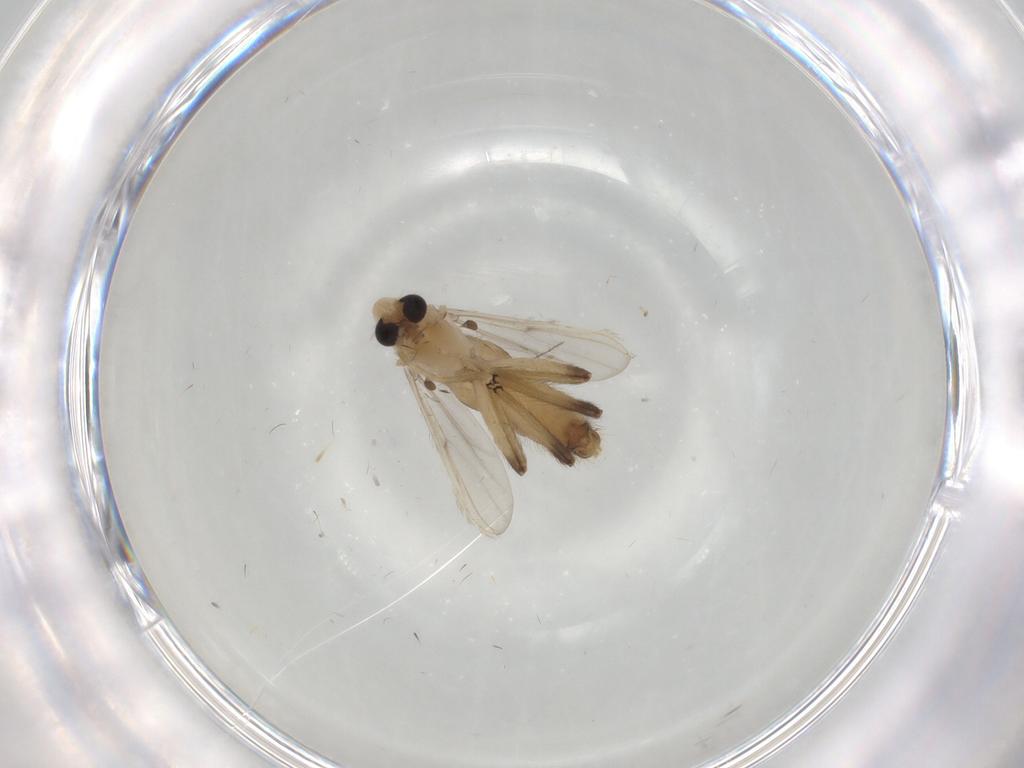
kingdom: Animalia
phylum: Arthropoda
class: Insecta
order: Diptera
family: Chironomidae
